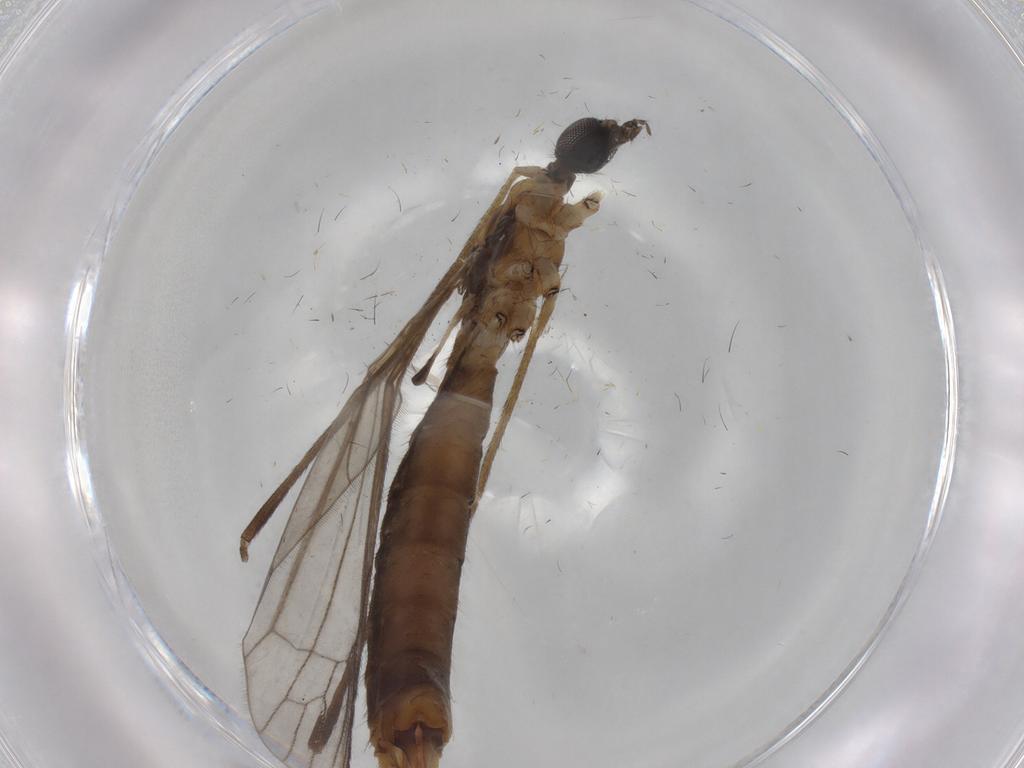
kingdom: Animalia
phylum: Arthropoda
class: Insecta
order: Diptera
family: Limoniidae
